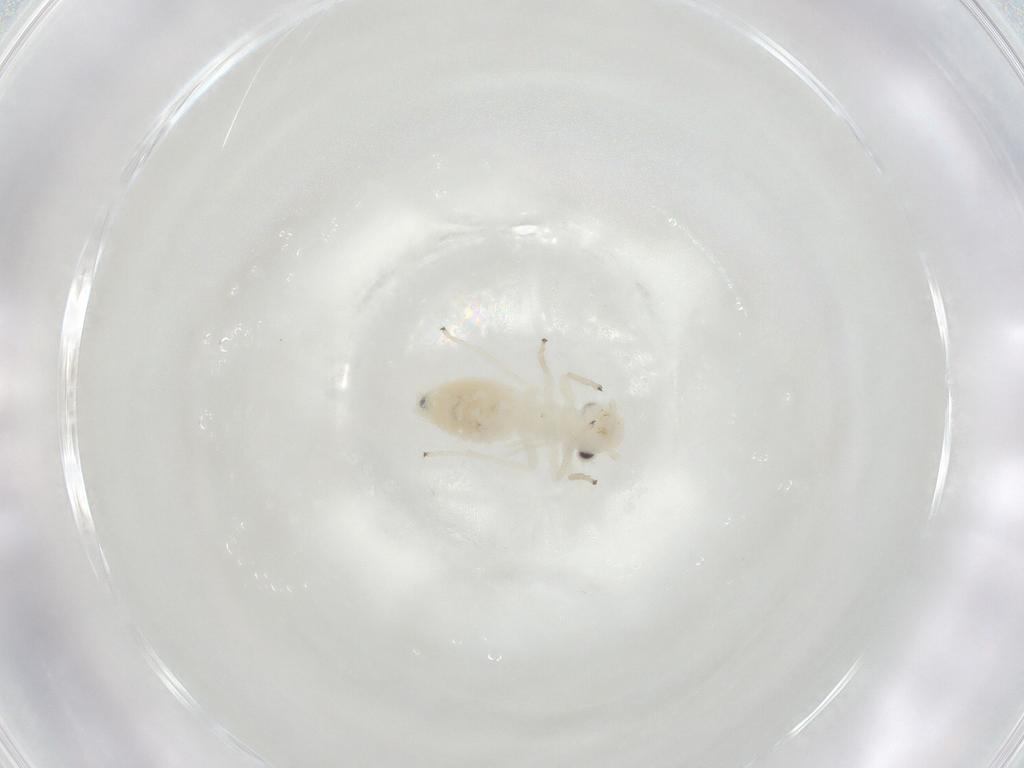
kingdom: Animalia
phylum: Arthropoda
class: Insecta
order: Psocodea
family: Caeciliusidae
